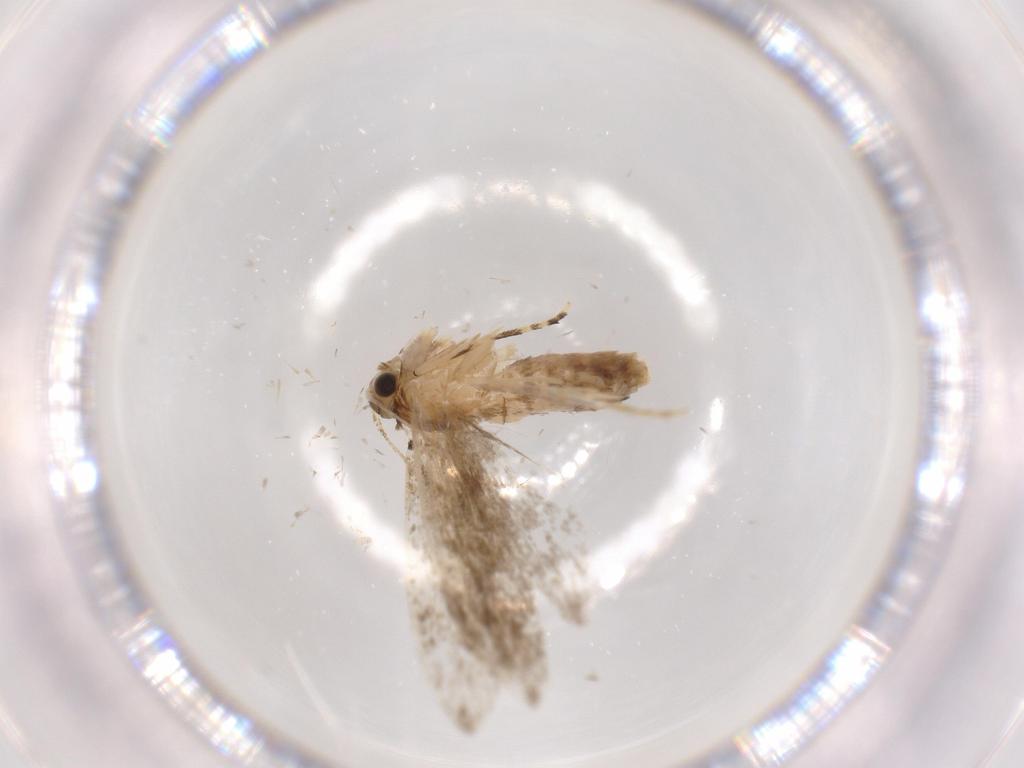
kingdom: Animalia
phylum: Arthropoda
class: Insecta
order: Lepidoptera
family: Tineidae
